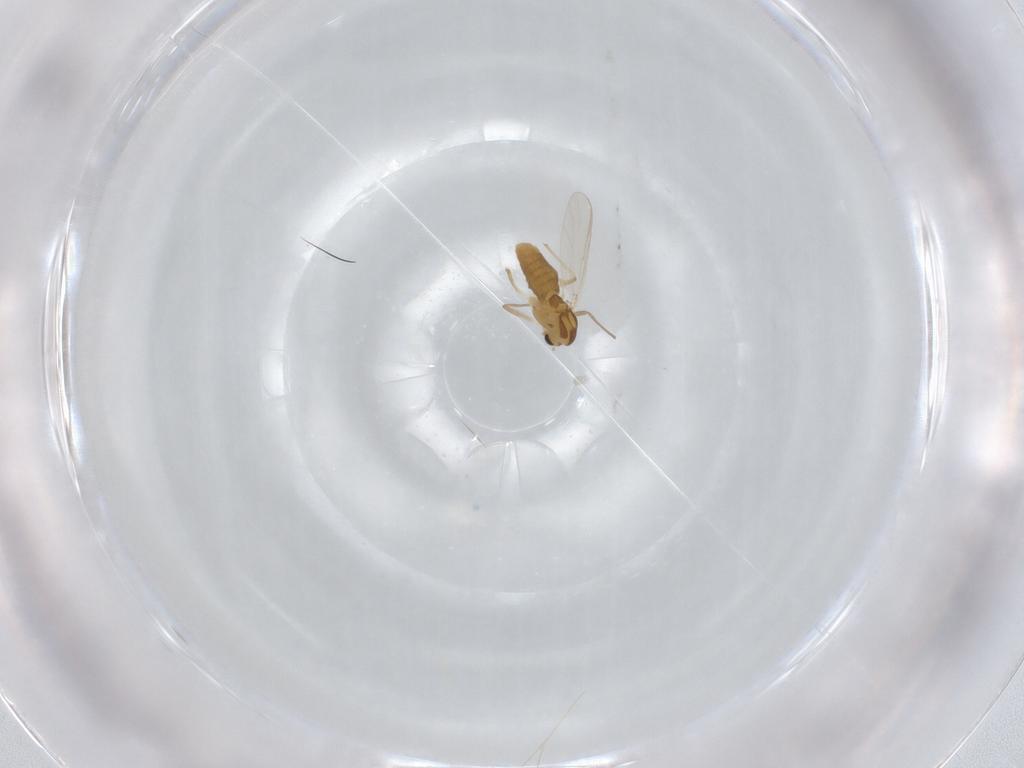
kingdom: Animalia
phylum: Arthropoda
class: Insecta
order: Diptera
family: Chironomidae
